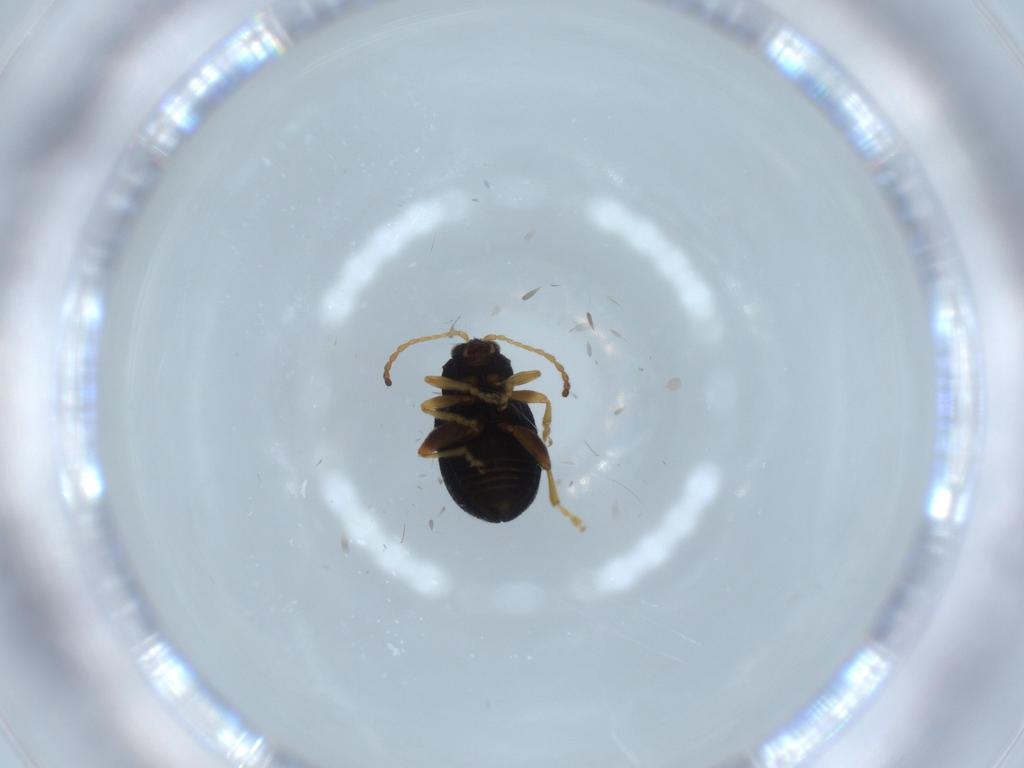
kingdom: Animalia
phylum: Arthropoda
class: Insecta
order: Coleoptera
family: Chrysomelidae
